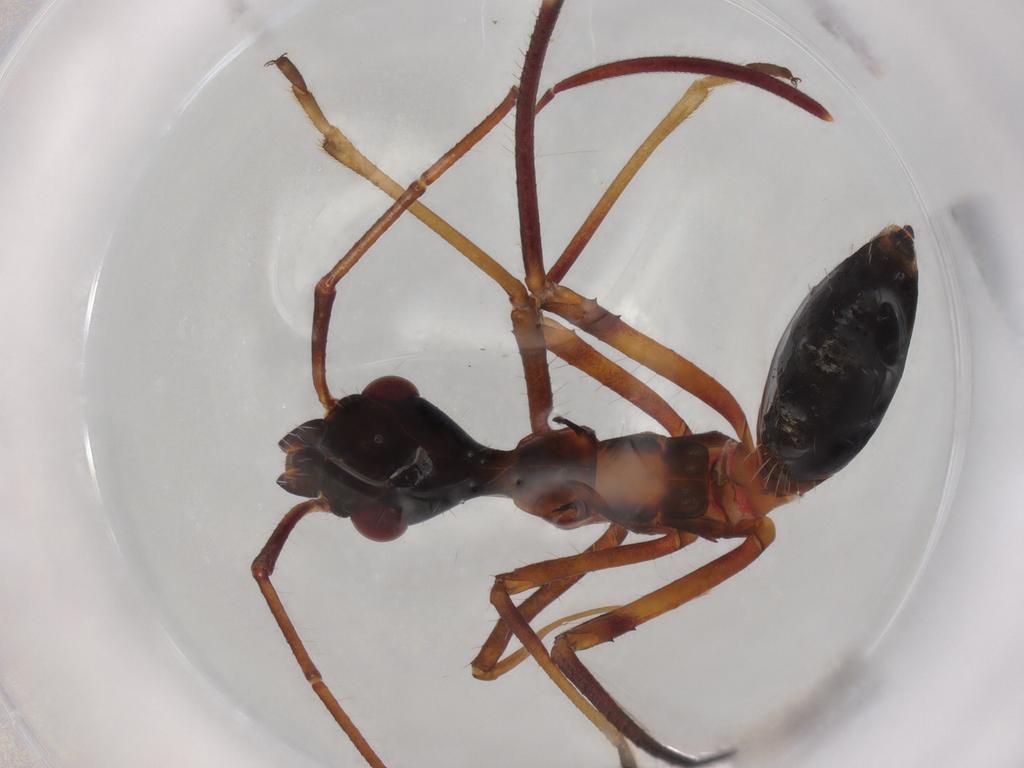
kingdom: Animalia
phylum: Arthropoda
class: Insecta
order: Hemiptera
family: Alydidae
